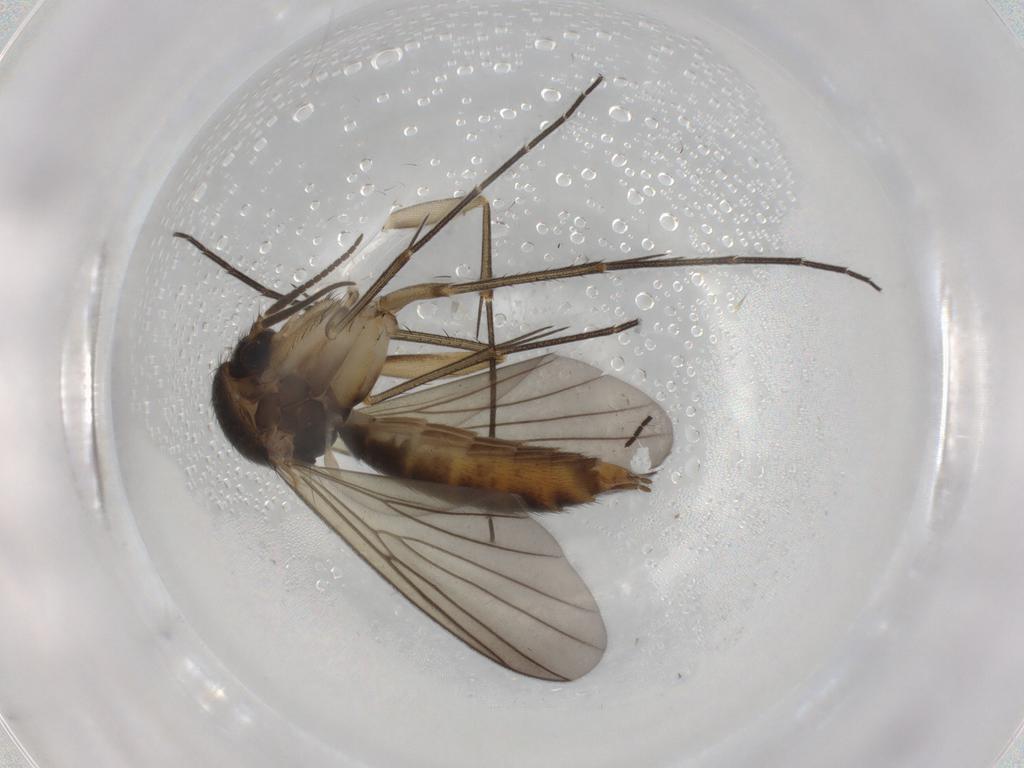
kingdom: Animalia
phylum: Arthropoda
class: Insecta
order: Diptera
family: Mycetophilidae
